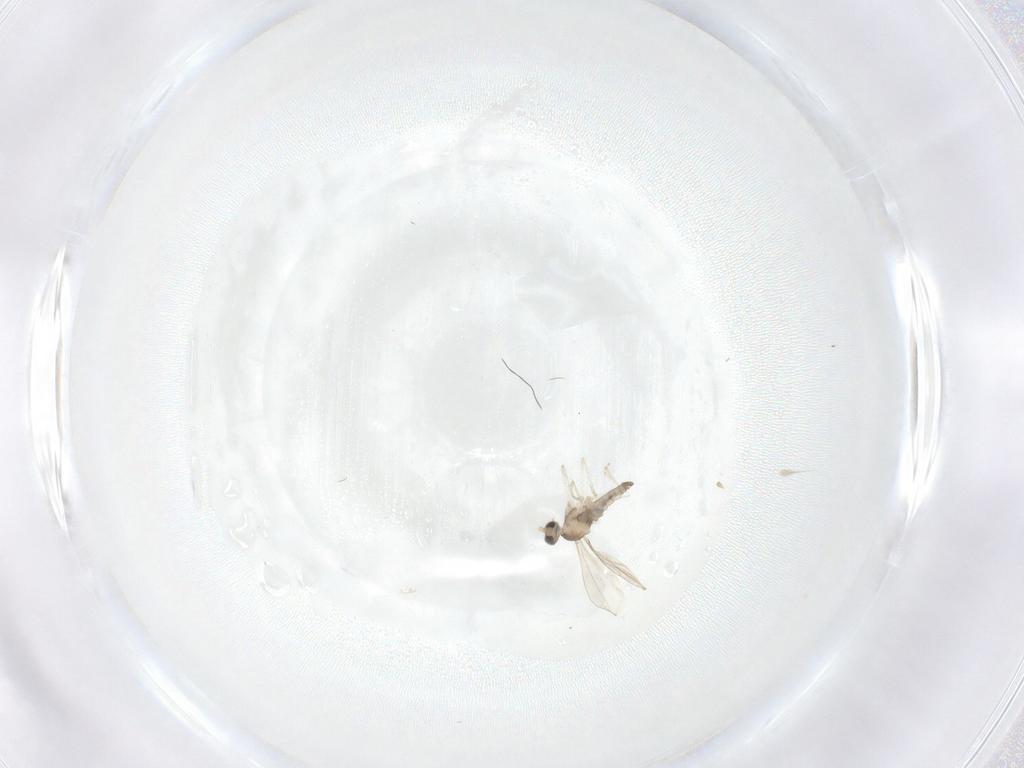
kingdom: Animalia
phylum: Arthropoda
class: Insecta
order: Diptera
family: Cecidomyiidae
